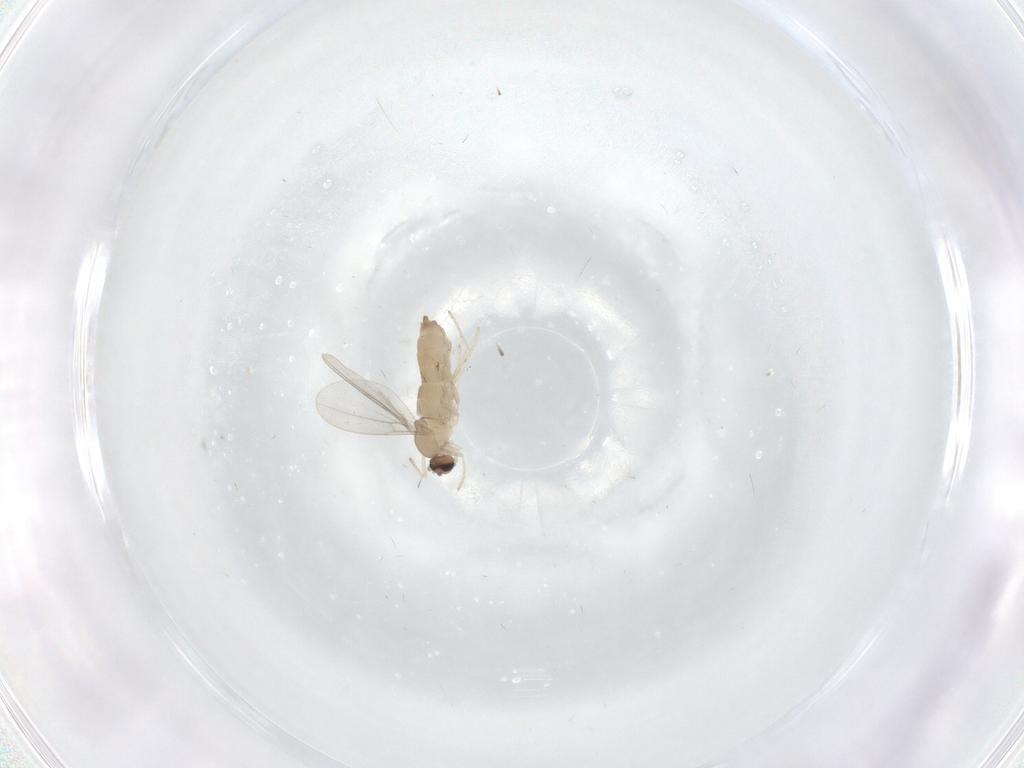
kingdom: Animalia
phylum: Arthropoda
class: Insecta
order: Diptera
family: Cecidomyiidae
